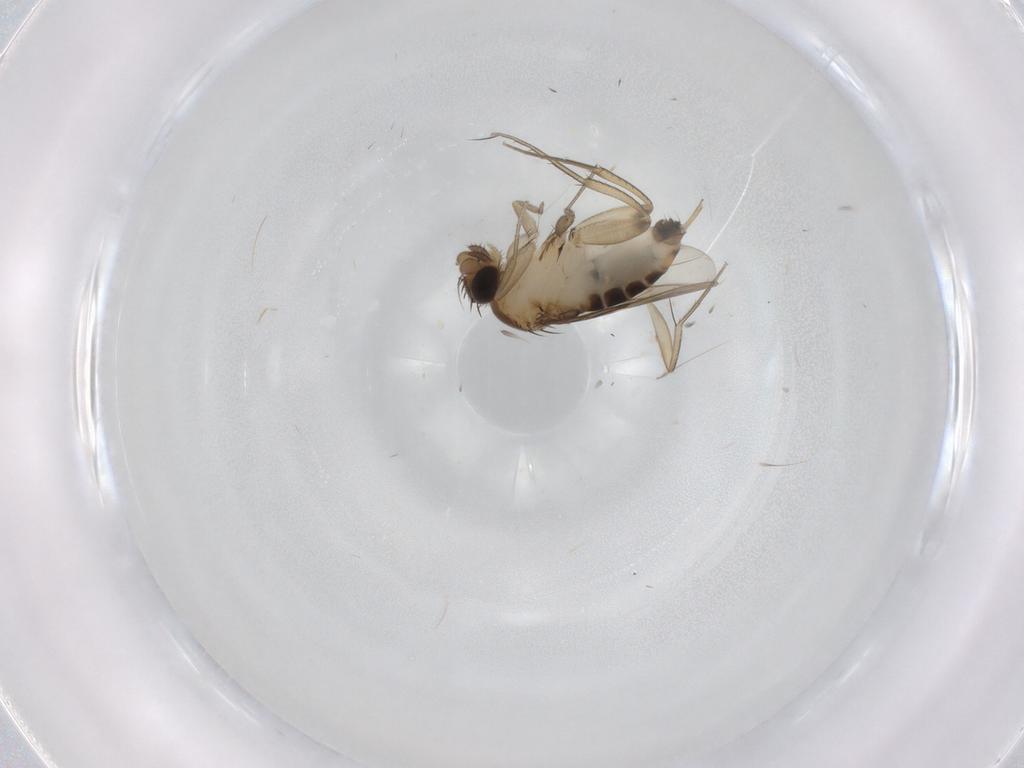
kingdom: Animalia
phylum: Arthropoda
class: Insecta
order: Diptera
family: Phoridae
